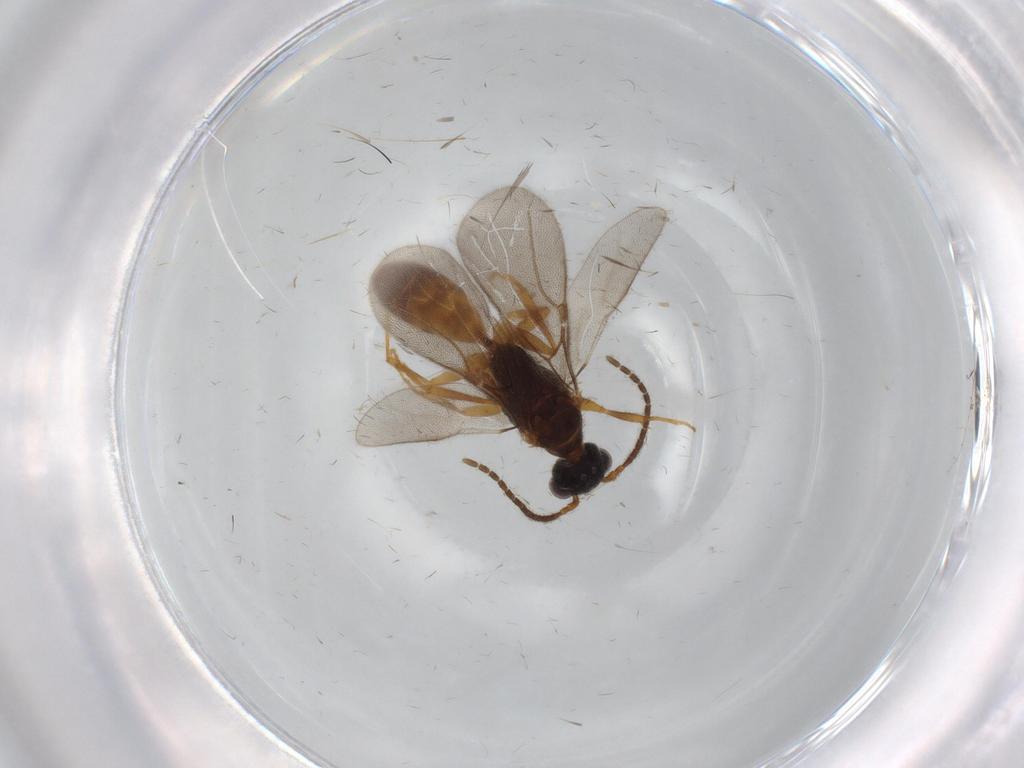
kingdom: Animalia
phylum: Arthropoda
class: Insecta
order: Hymenoptera
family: Bethylidae
